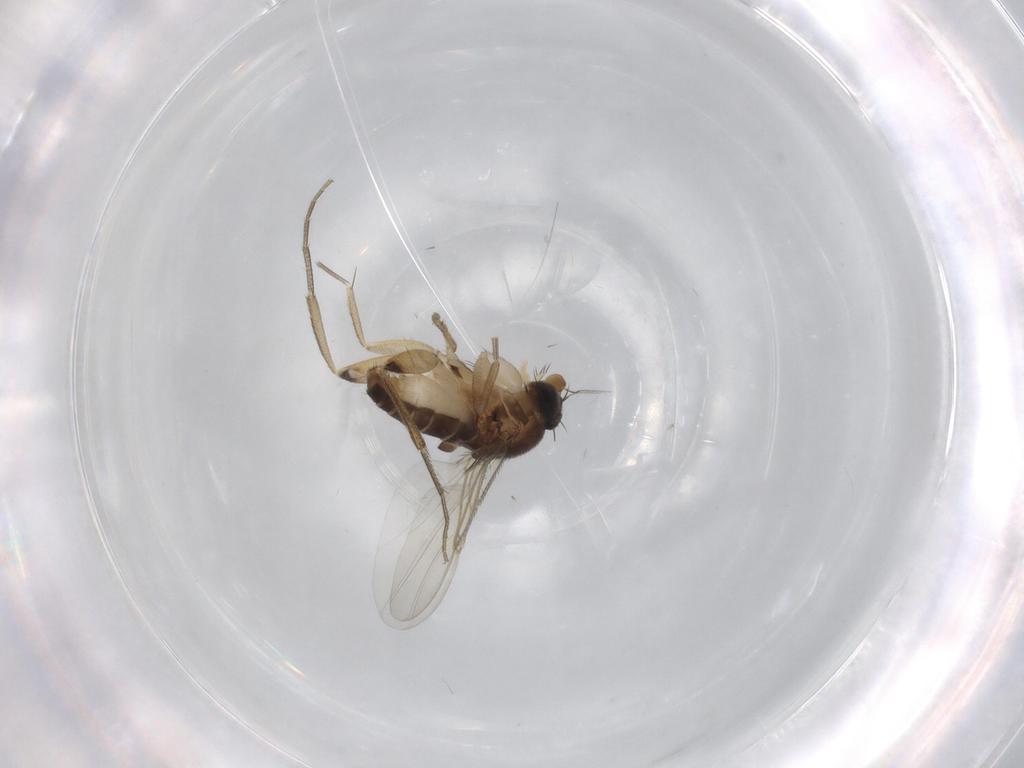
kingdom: Animalia
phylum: Arthropoda
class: Insecta
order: Diptera
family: Phoridae
